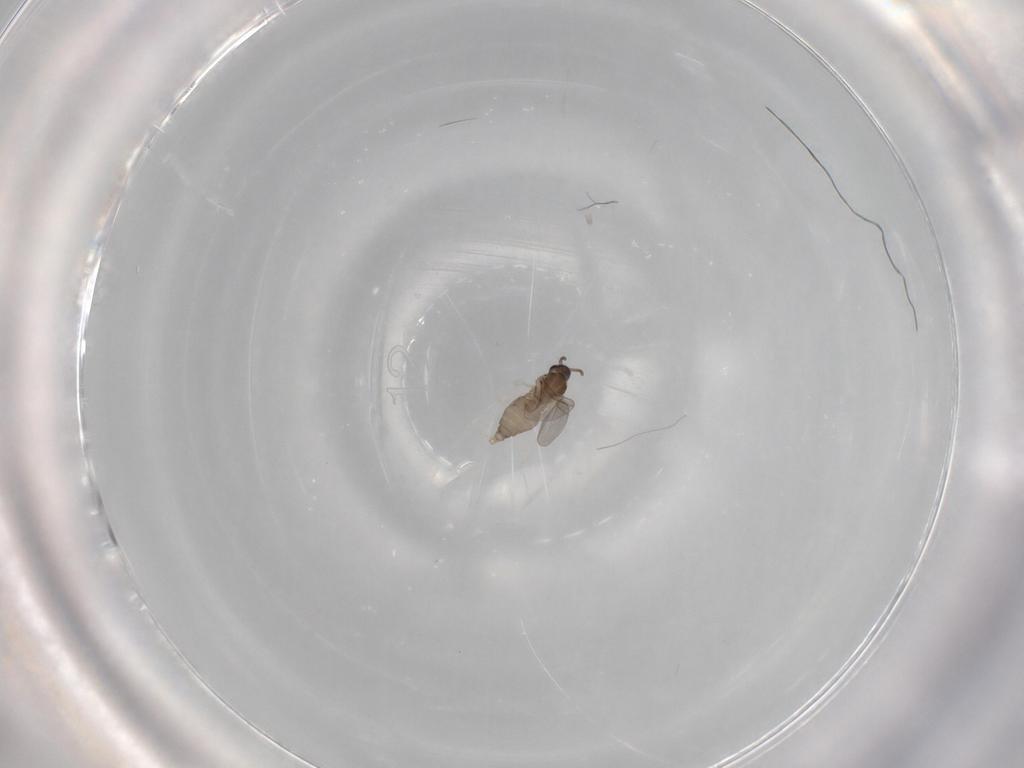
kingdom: Animalia
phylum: Arthropoda
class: Insecta
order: Diptera
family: Cecidomyiidae
